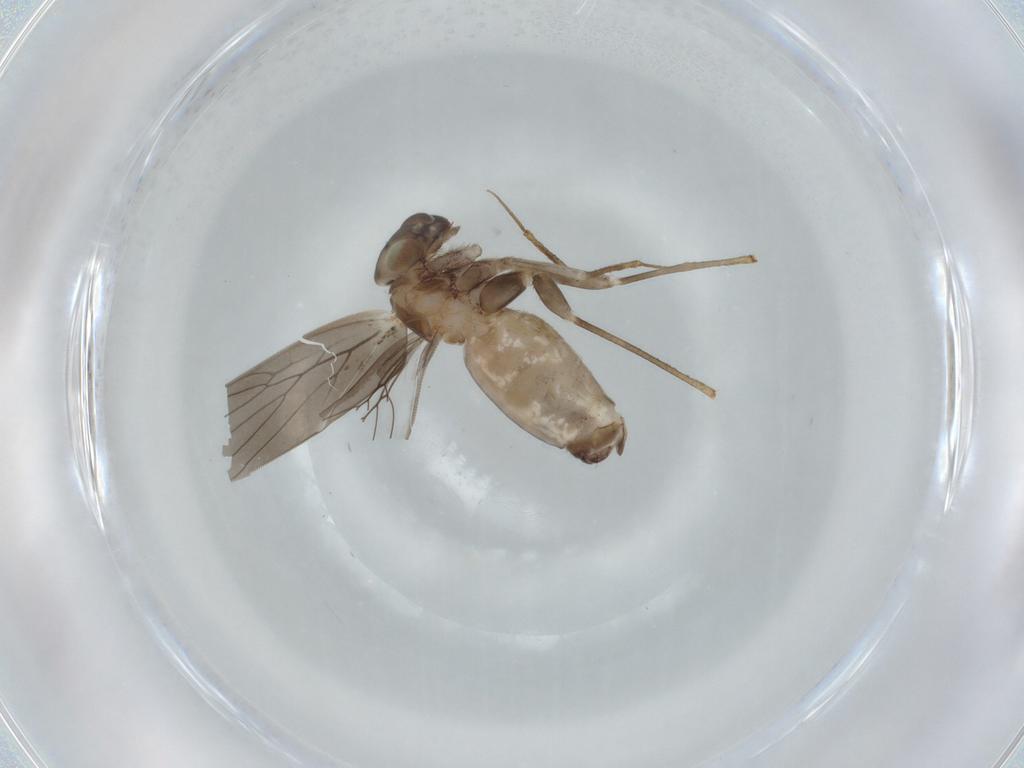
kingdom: Animalia
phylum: Arthropoda
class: Insecta
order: Psocodea
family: Lepidopsocidae
